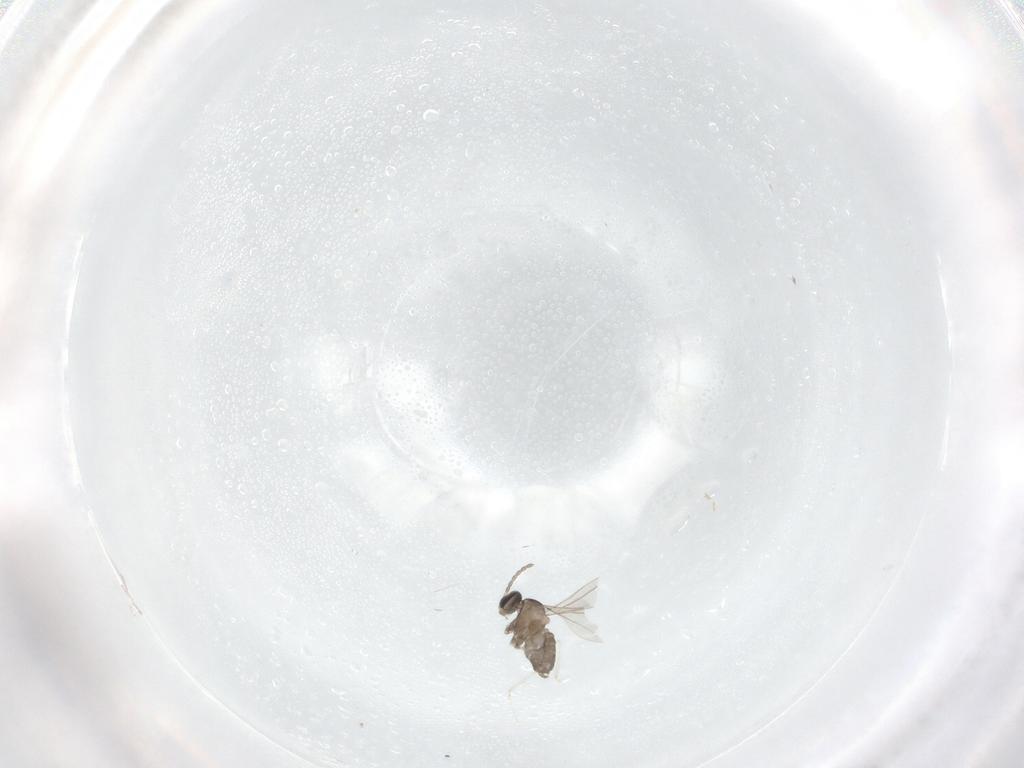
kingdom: Animalia
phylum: Arthropoda
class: Insecta
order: Diptera
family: Cecidomyiidae
